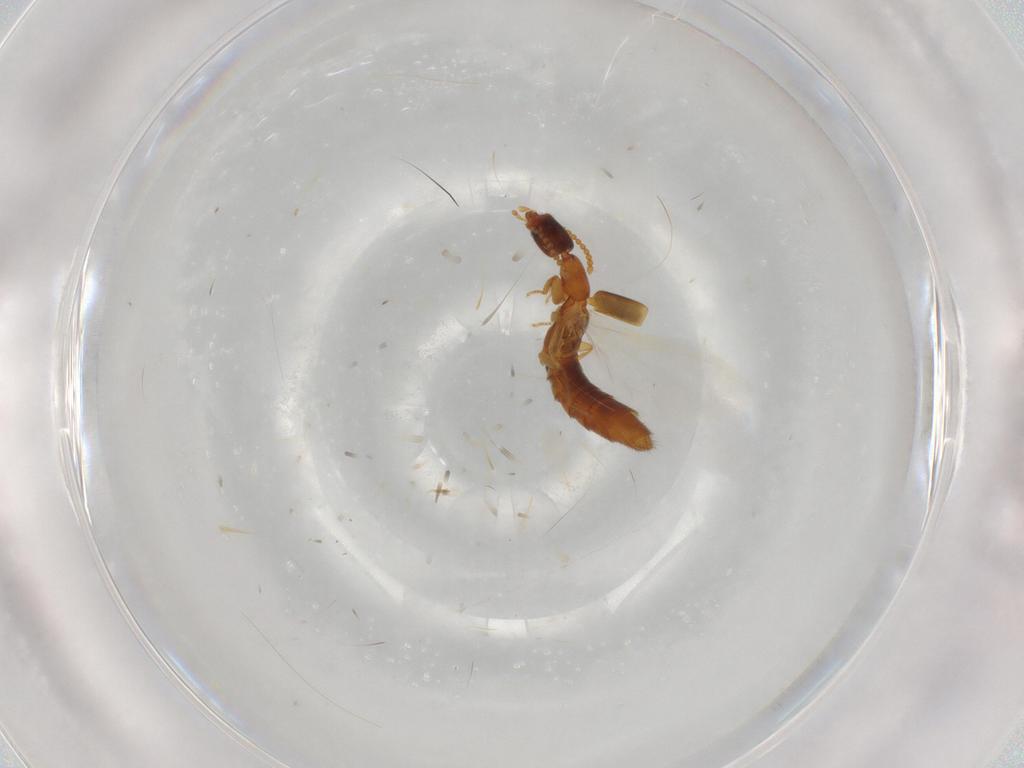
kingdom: Animalia
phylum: Arthropoda
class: Insecta
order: Coleoptera
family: Staphylinidae
